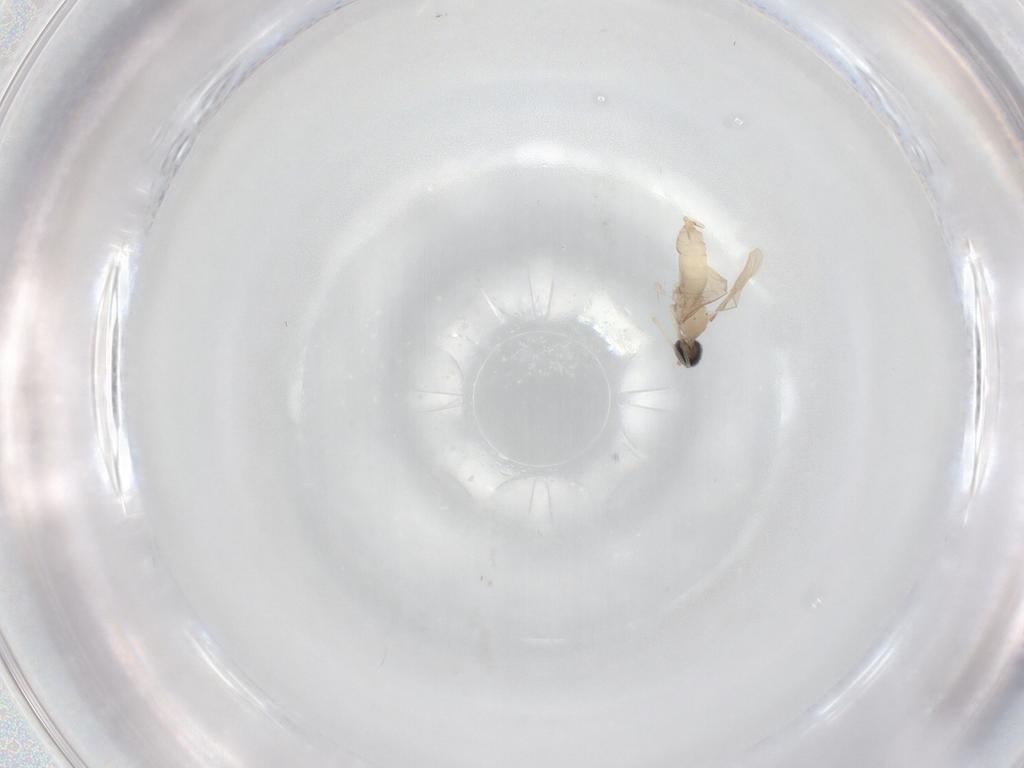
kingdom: Animalia
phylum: Arthropoda
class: Insecta
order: Diptera
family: Cecidomyiidae
